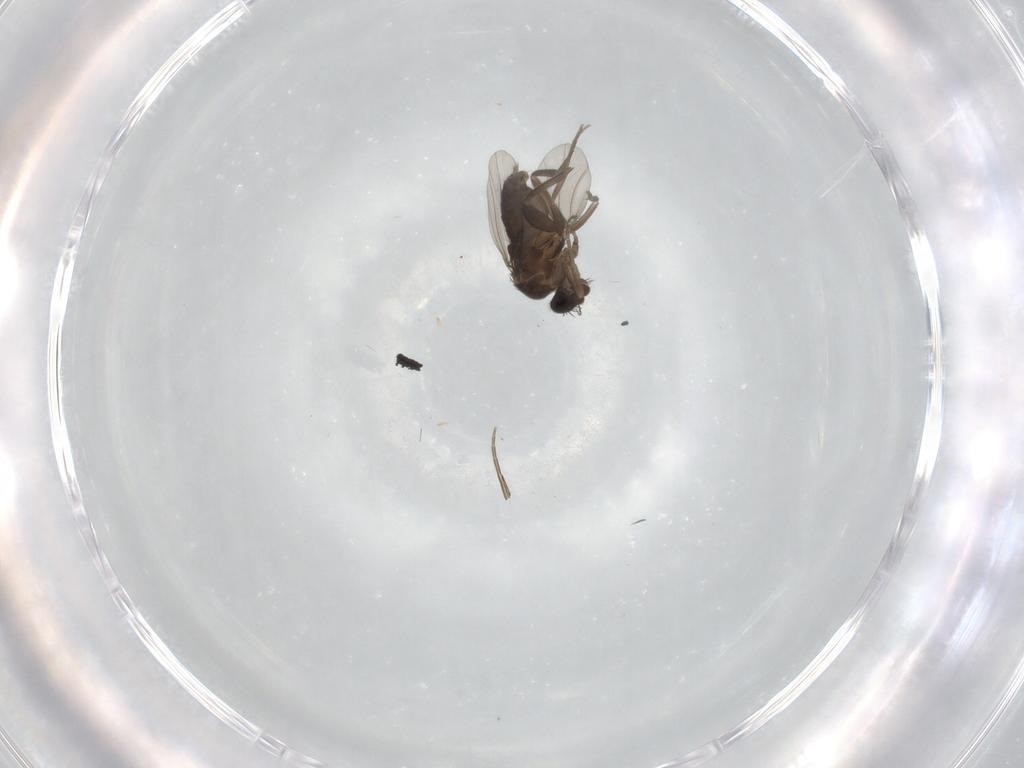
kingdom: Animalia
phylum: Arthropoda
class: Insecta
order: Diptera
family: Phoridae
